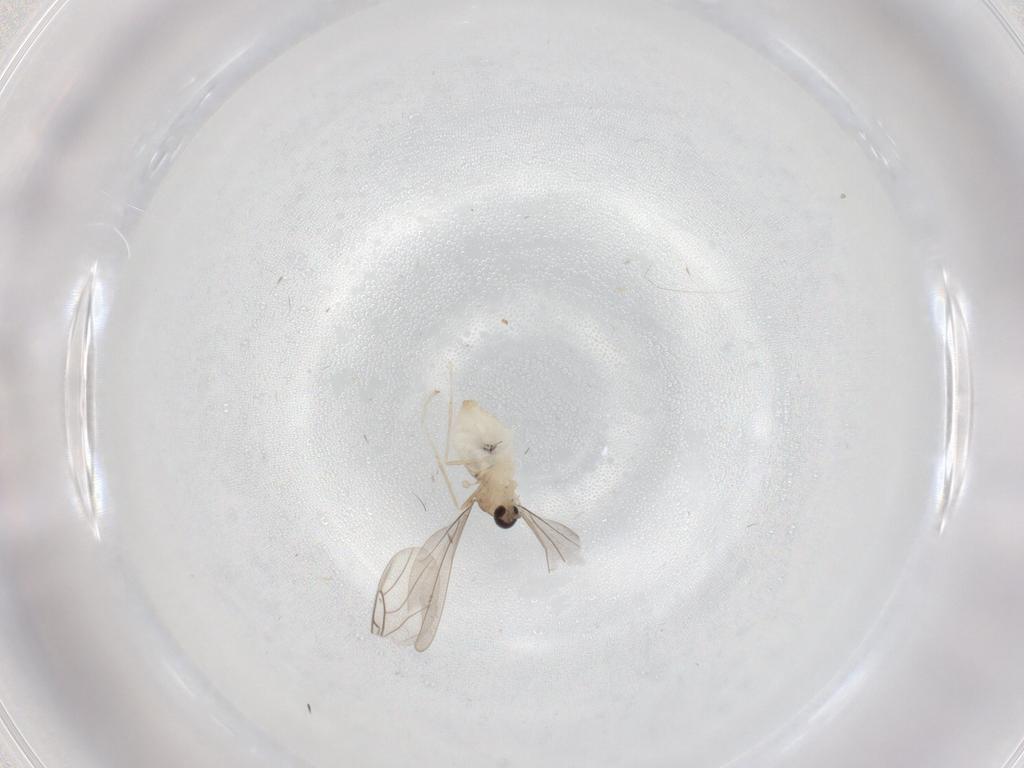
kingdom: Animalia
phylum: Arthropoda
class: Insecta
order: Diptera
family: Cecidomyiidae
